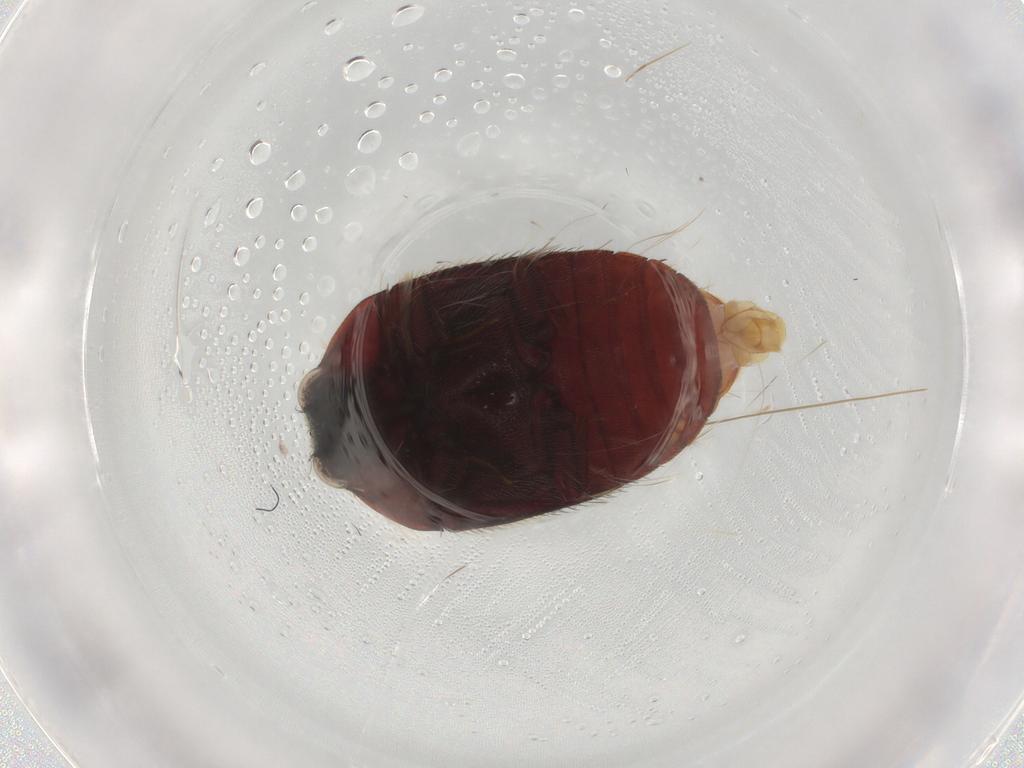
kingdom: Animalia
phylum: Arthropoda
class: Insecta
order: Coleoptera
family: Dermestidae
